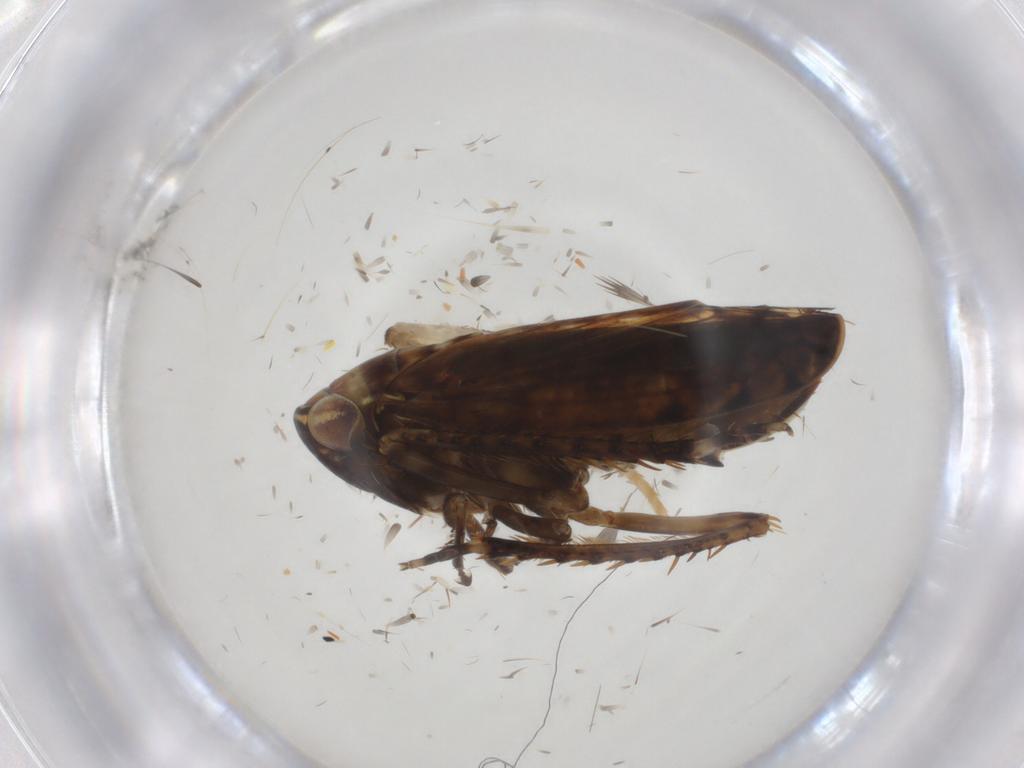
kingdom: Animalia
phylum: Arthropoda
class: Insecta
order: Hemiptera
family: Cicadellidae
